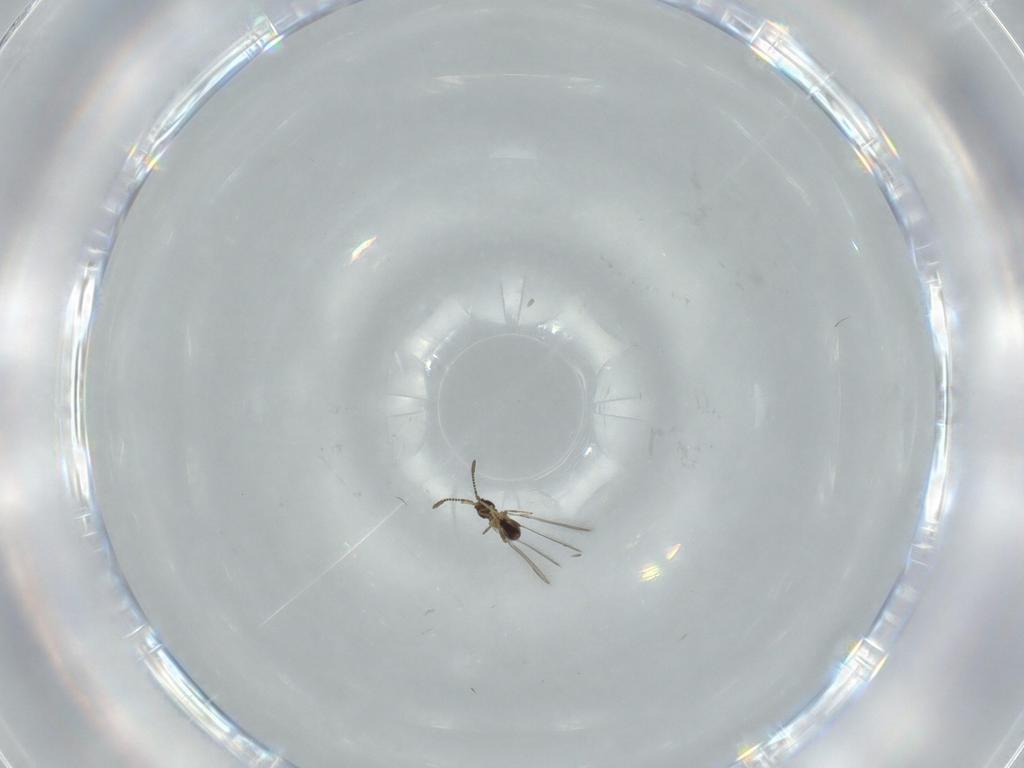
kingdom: Animalia
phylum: Arthropoda
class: Insecta
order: Hymenoptera
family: Mymaridae
